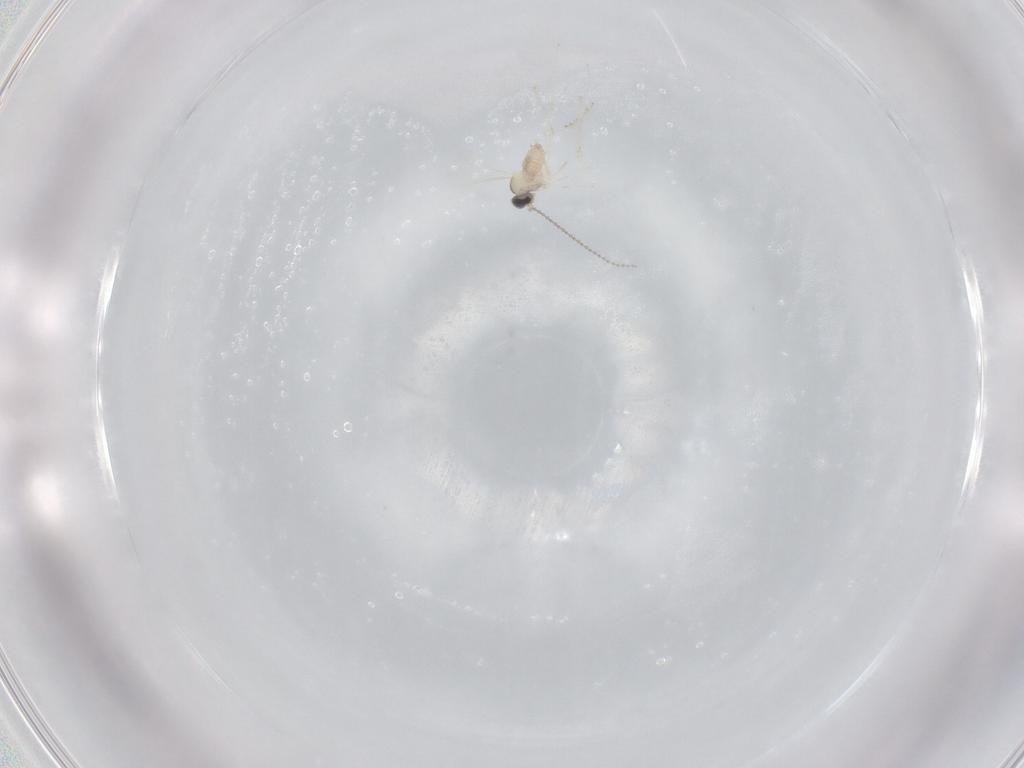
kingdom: Animalia
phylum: Arthropoda
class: Insecta
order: Diptera
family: Cecidomyiidae
